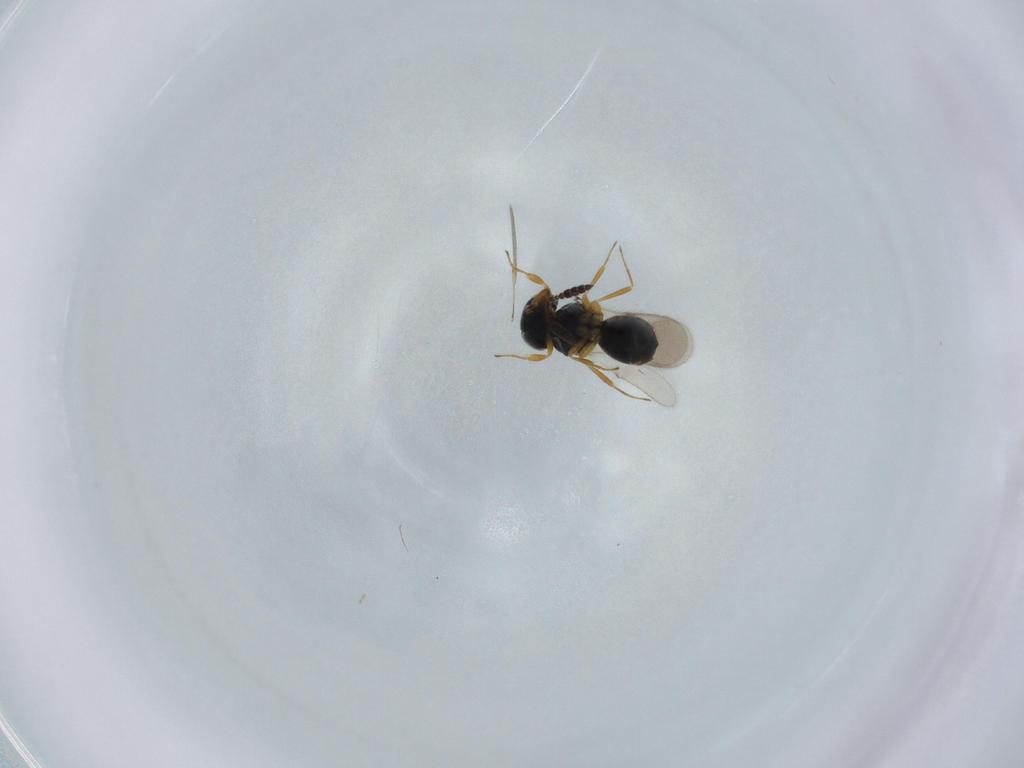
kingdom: Animalia
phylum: Arthropoda
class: Insecta
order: Hymenoptera
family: Scelionidae
